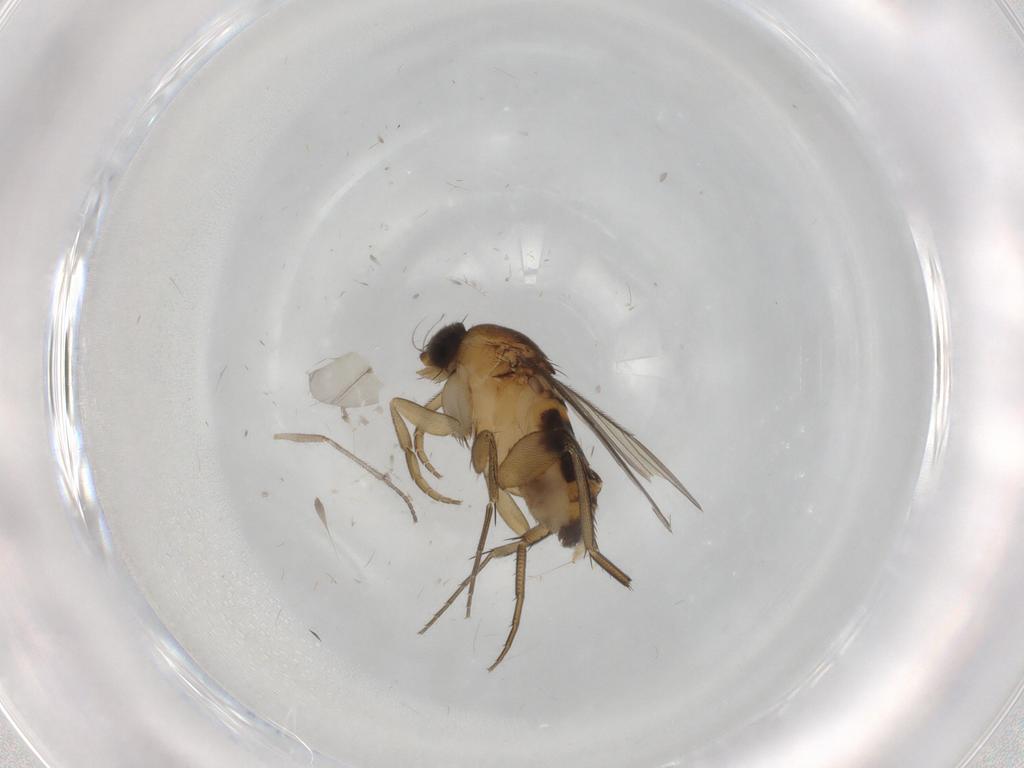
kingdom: Animalia
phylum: Arthropoda
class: Insecta
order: Diptera
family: Phoridae
